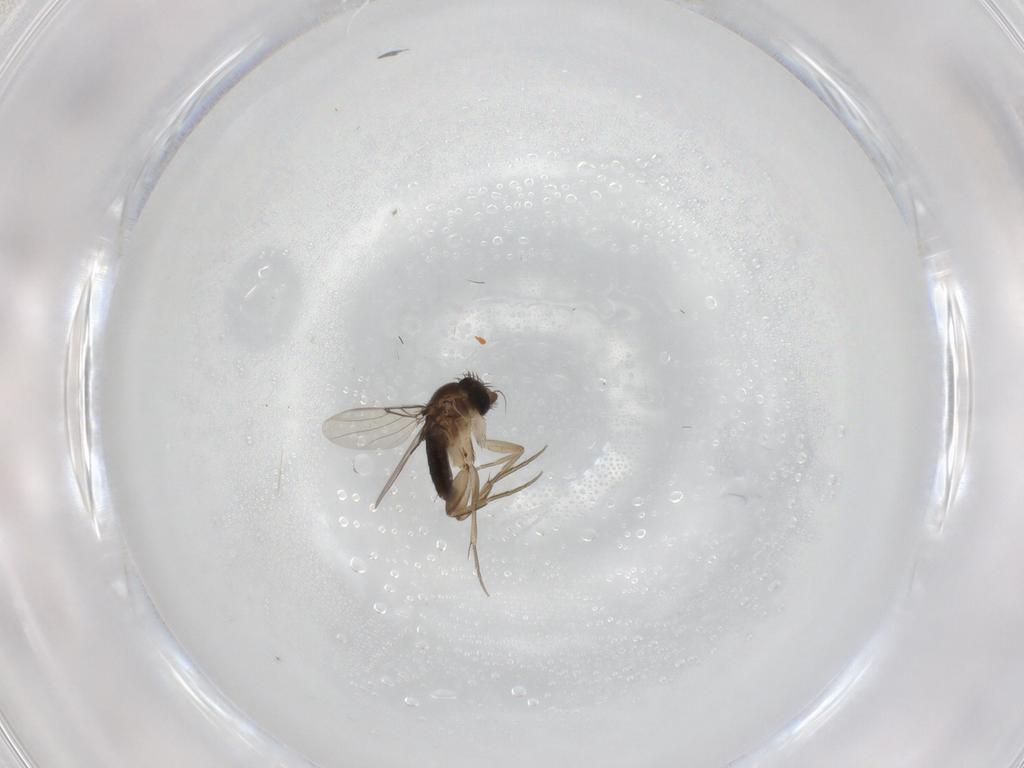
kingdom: Animalia
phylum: Arthropoda
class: Insecta
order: Diptera
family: Phoridae
